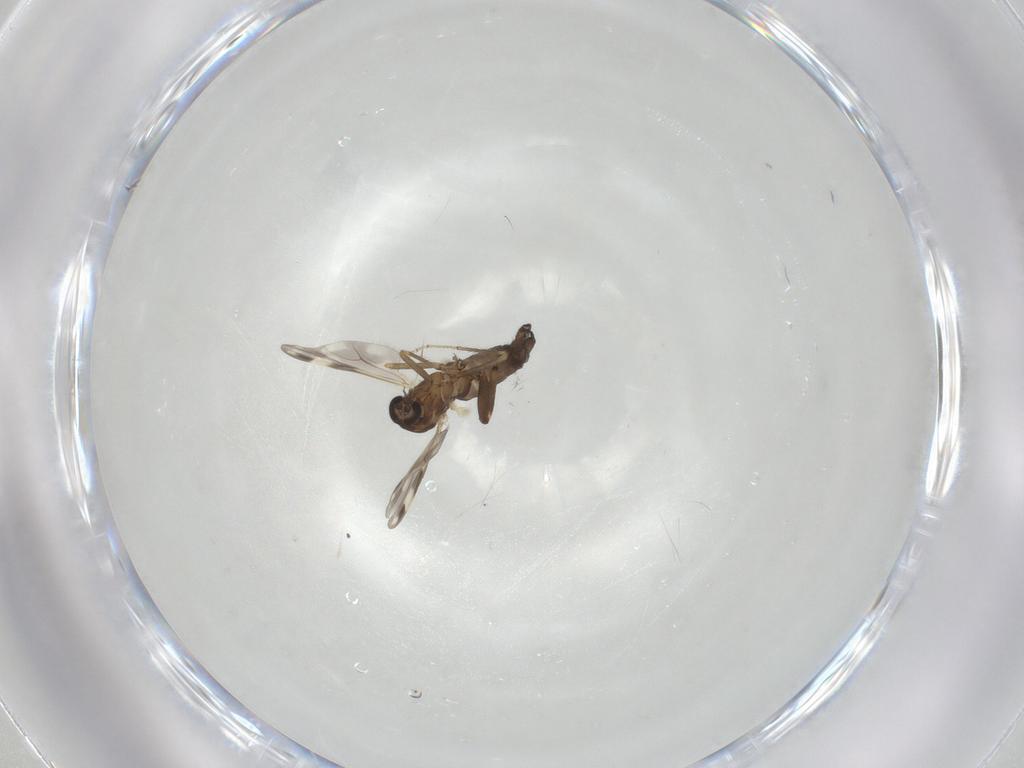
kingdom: Animalia
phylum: Arthropoda
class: Insecta
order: Diptera
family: Ceratopogonidae
